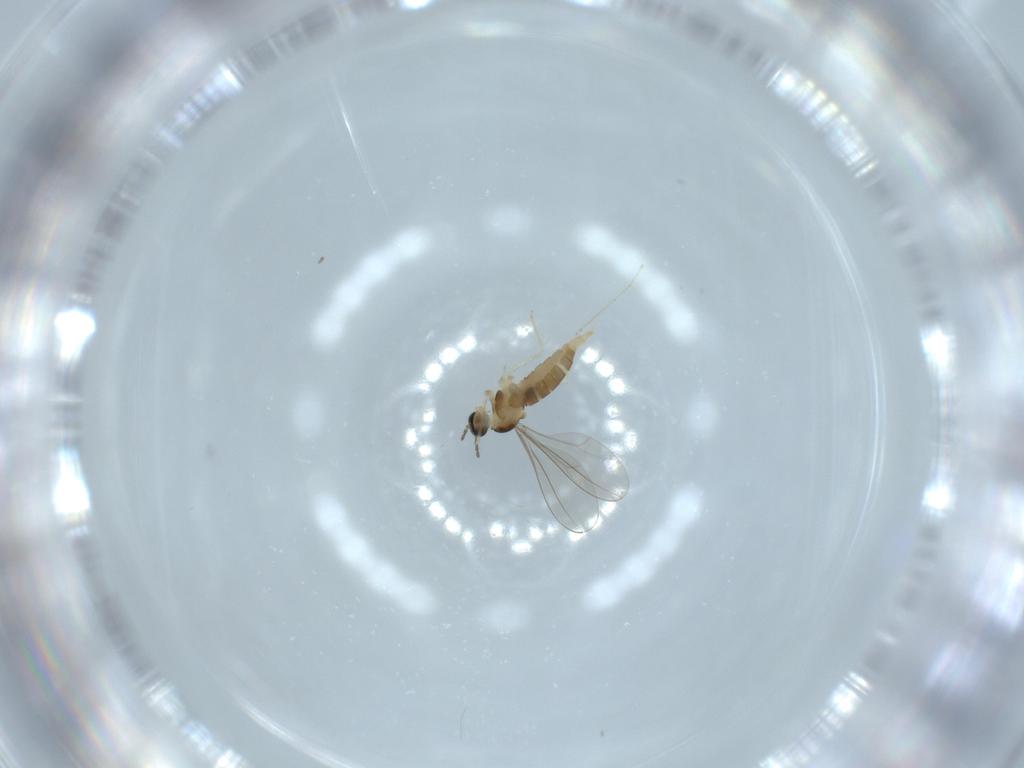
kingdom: Animalia
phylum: Arthropoda
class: Insecta
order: Diptera
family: Cecidomyiidae
